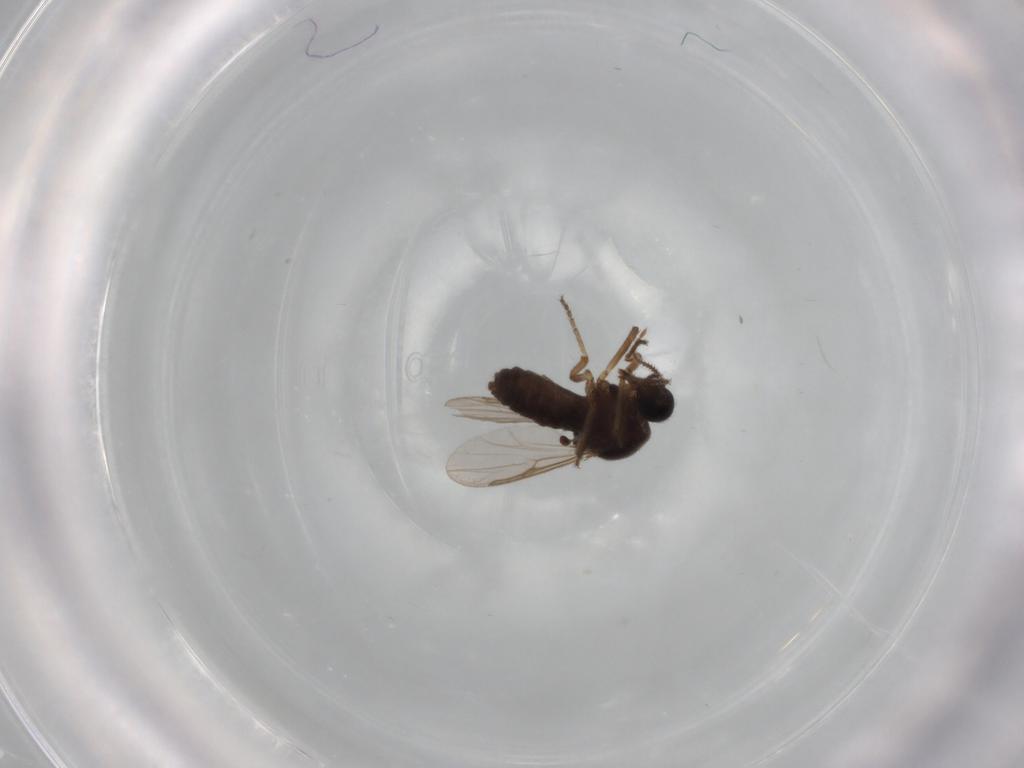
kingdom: Animalia
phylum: Arthropoda
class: Insecta
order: Diptera
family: Ceratopogonidae
